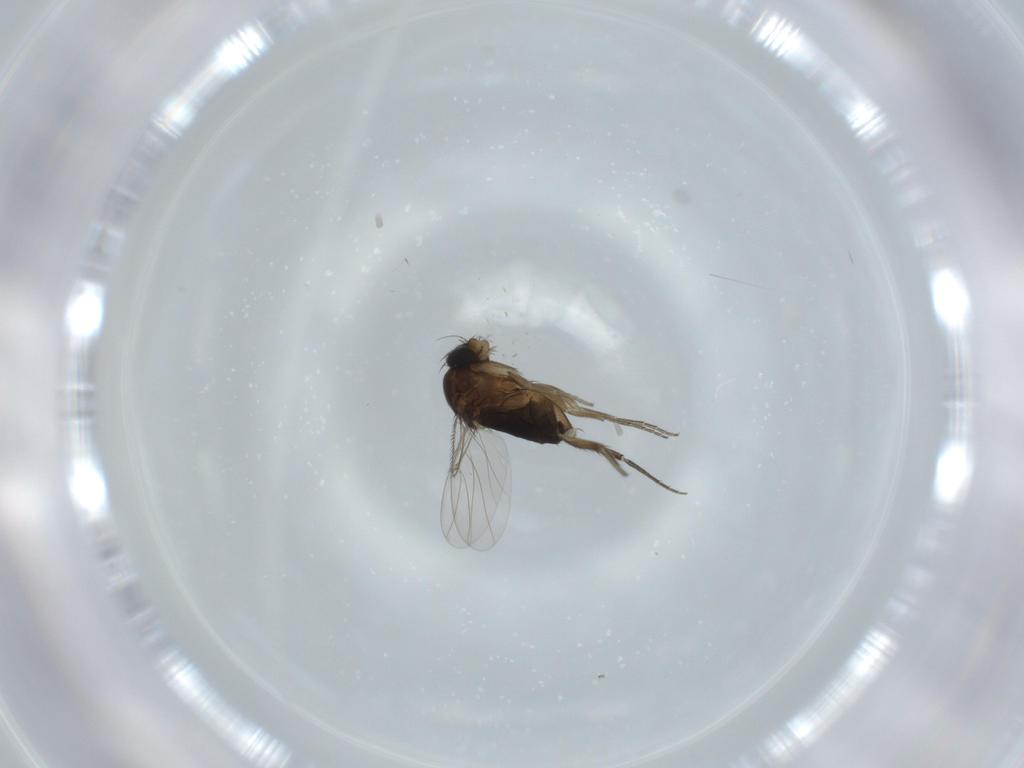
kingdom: Animalia
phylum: Arthropoda
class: Insecta
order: Diptera
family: Phoridae
